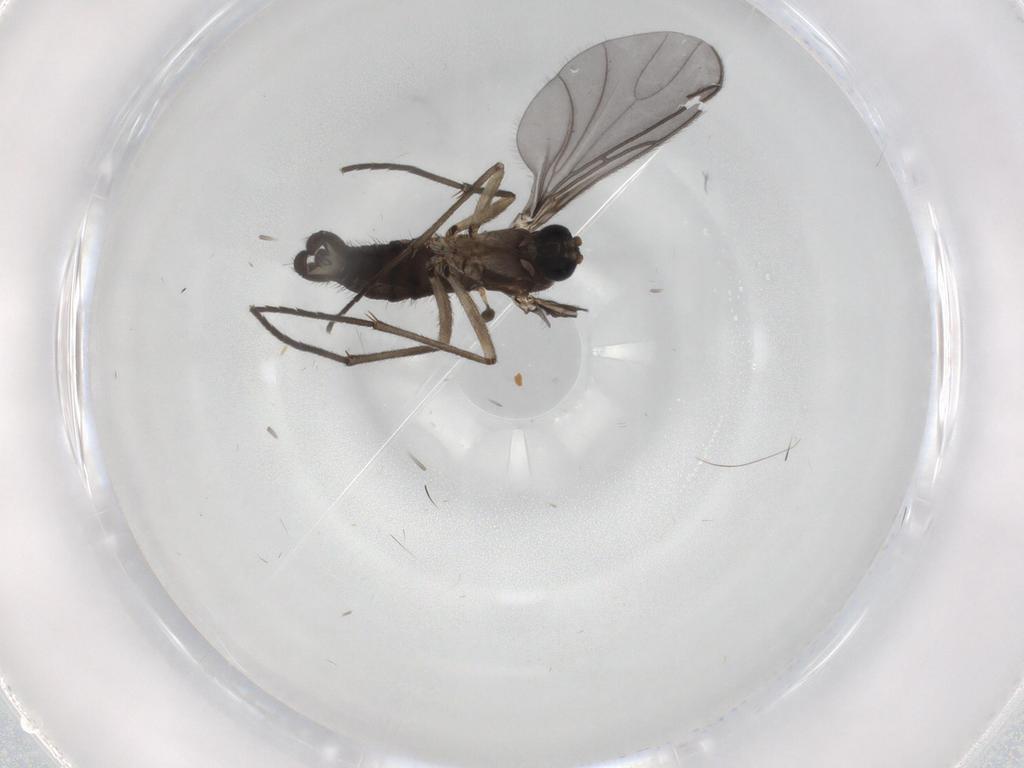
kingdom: Animalia
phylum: Arthropoda
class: Insecta
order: Diptera
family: Sciaridae
